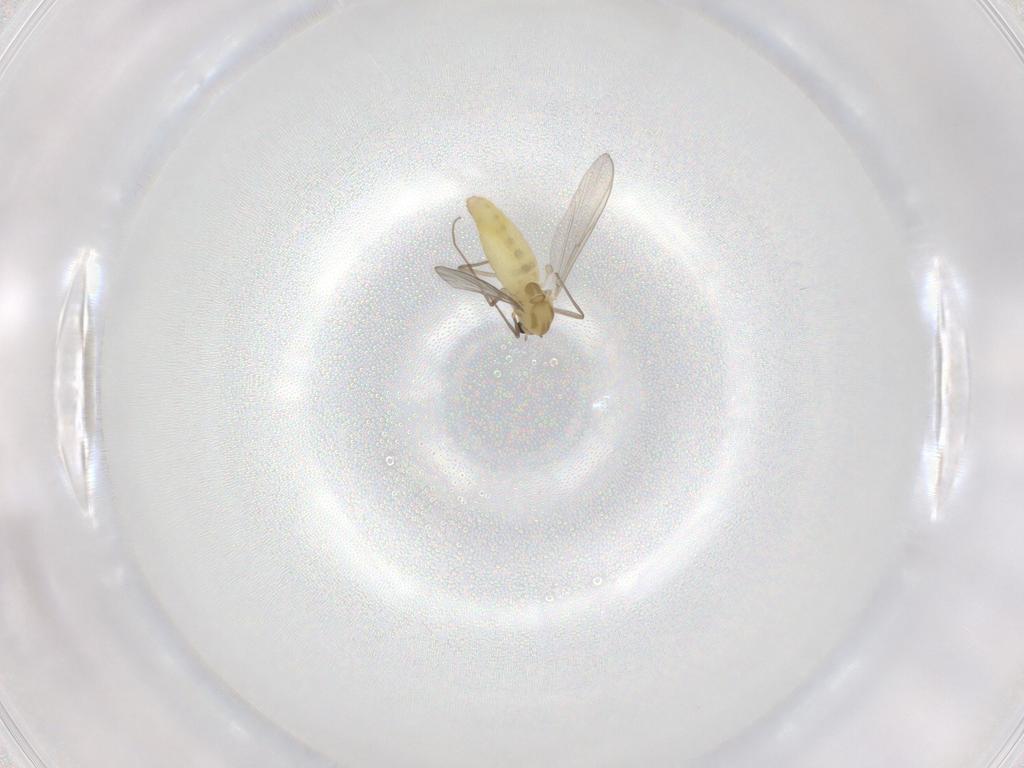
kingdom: Animalia
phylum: Arthropoda
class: Insecta
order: Diptera
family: Chironomidae
